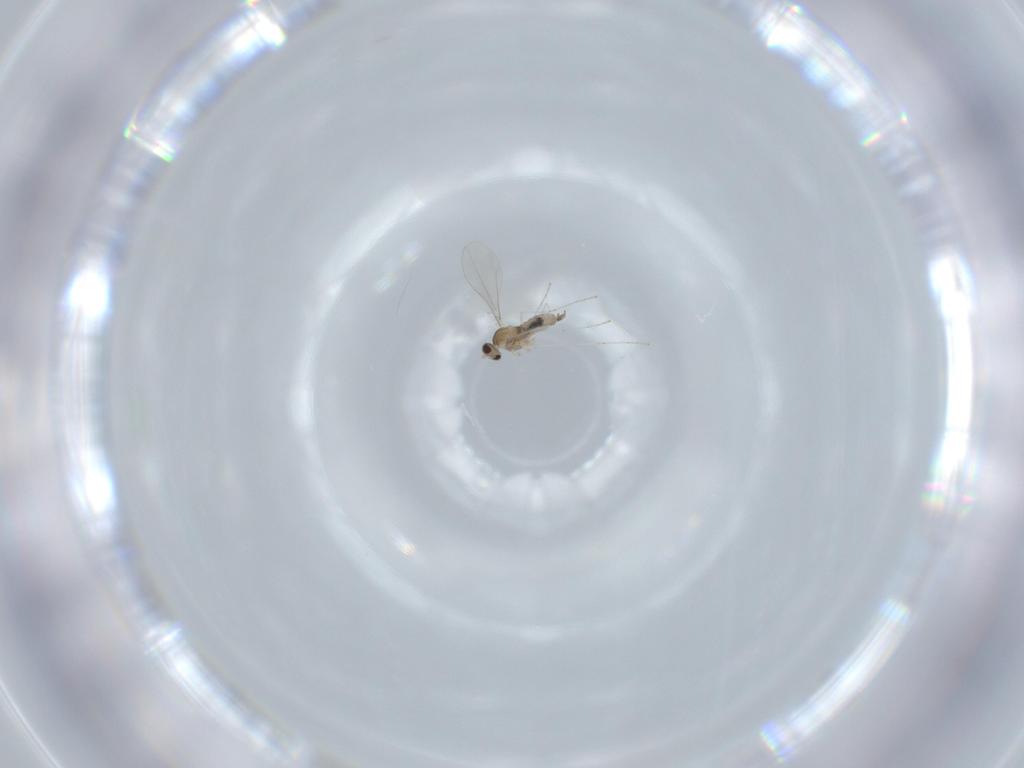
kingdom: Animalia
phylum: Arthropoda
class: Insecta
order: Diptera
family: Cecidomyiidae
